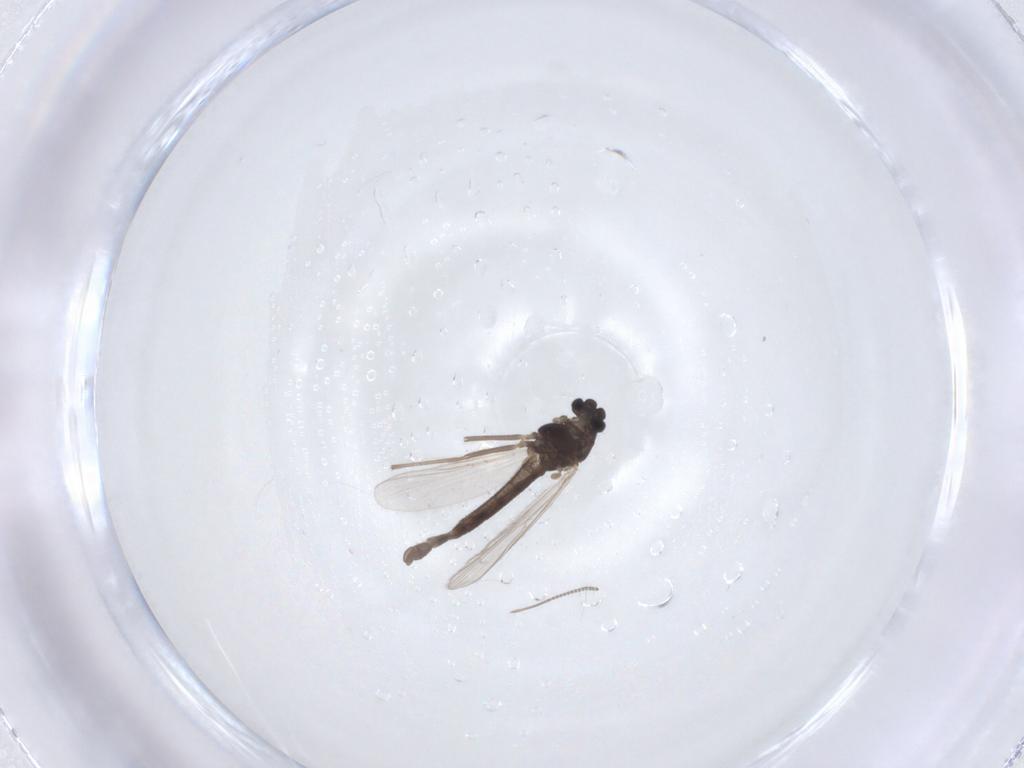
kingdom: Animalia
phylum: Arthropoda
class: Insecta
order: Diptera
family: Chironomidae
